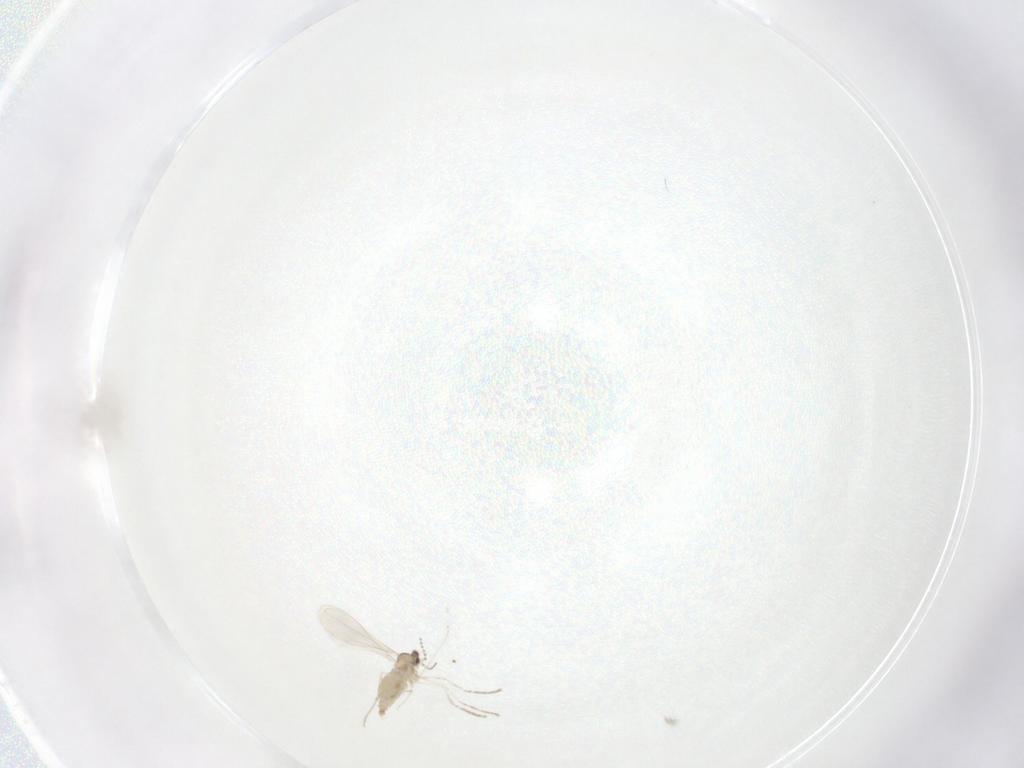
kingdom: Animalia
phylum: Arthropoda
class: Insecta
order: Diptera
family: Cecidomyiidae
